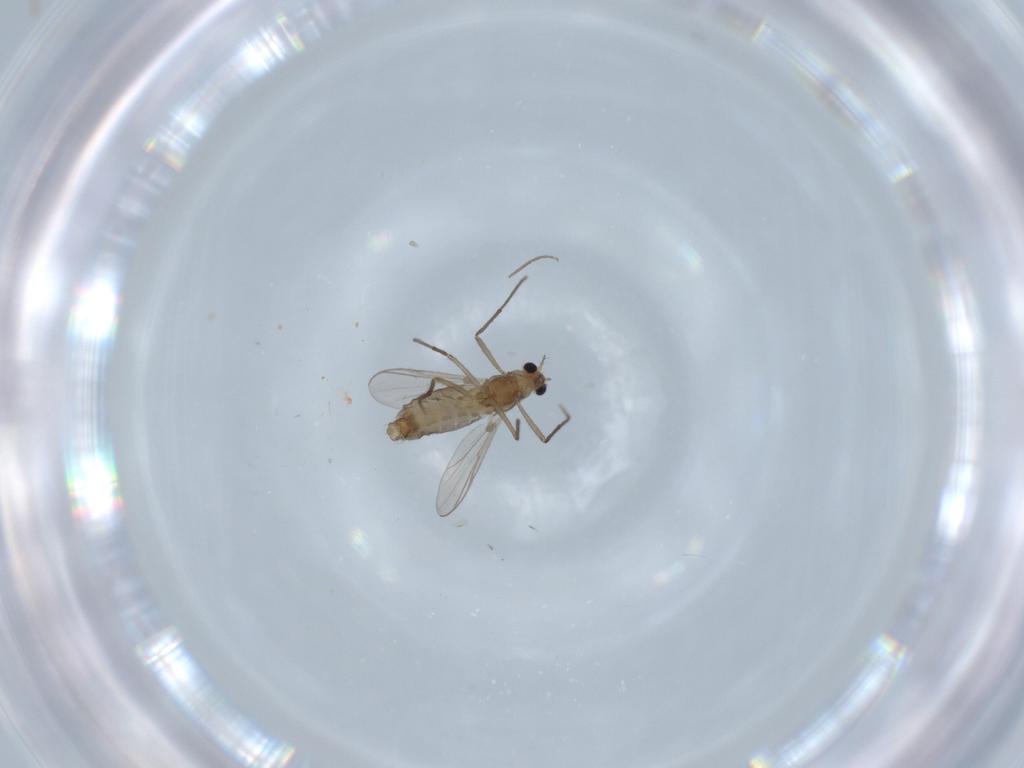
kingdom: Animalia
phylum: Arthropoda
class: Insecta
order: Diptera
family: Chironomidae
